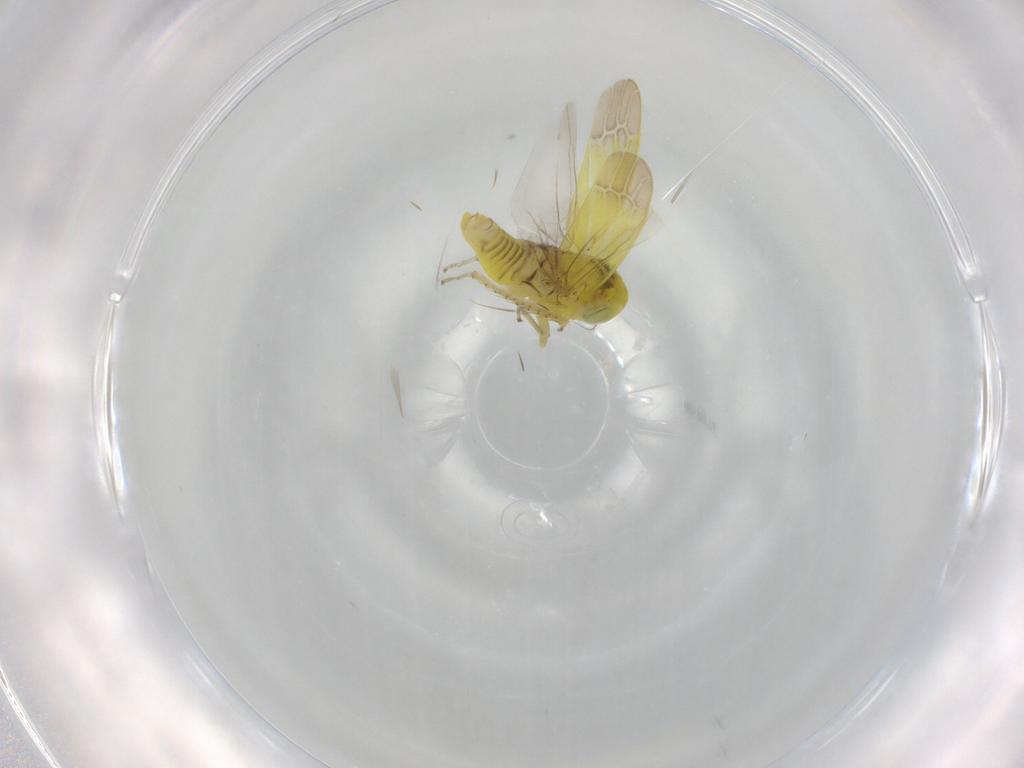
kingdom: Animalia
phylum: Arthropoda
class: Insecta
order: Hemiptera
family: Cicadellidae
